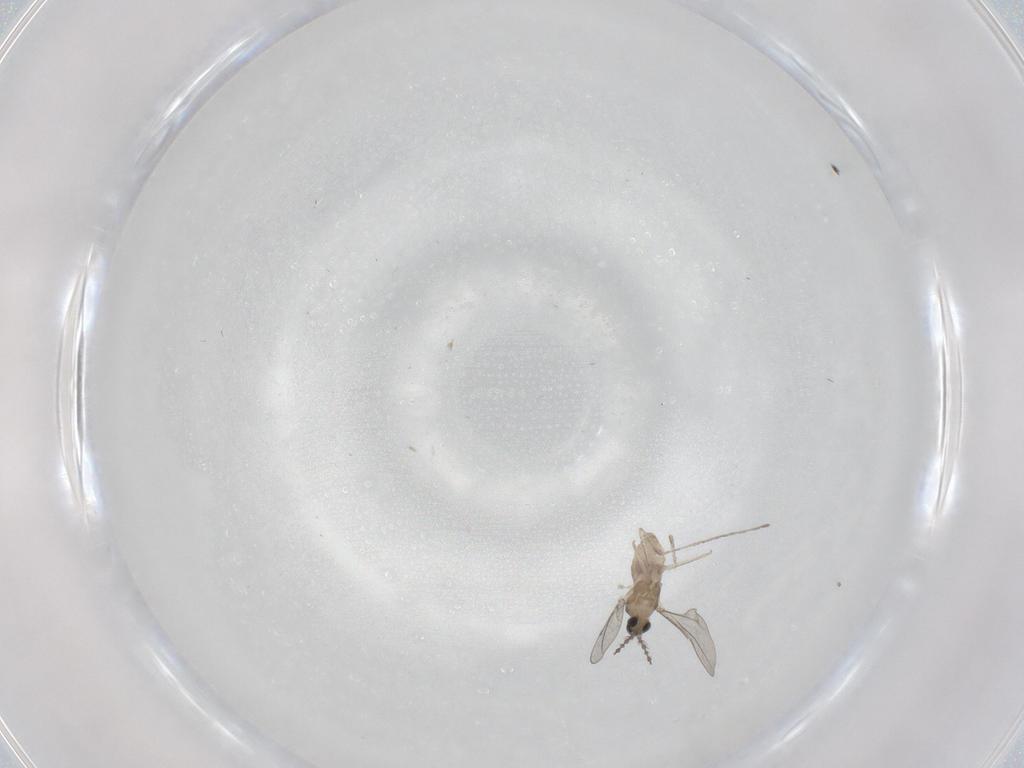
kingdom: Animalia
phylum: Arthropoda
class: Insecta
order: Diptera
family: Cecidomyiidae
